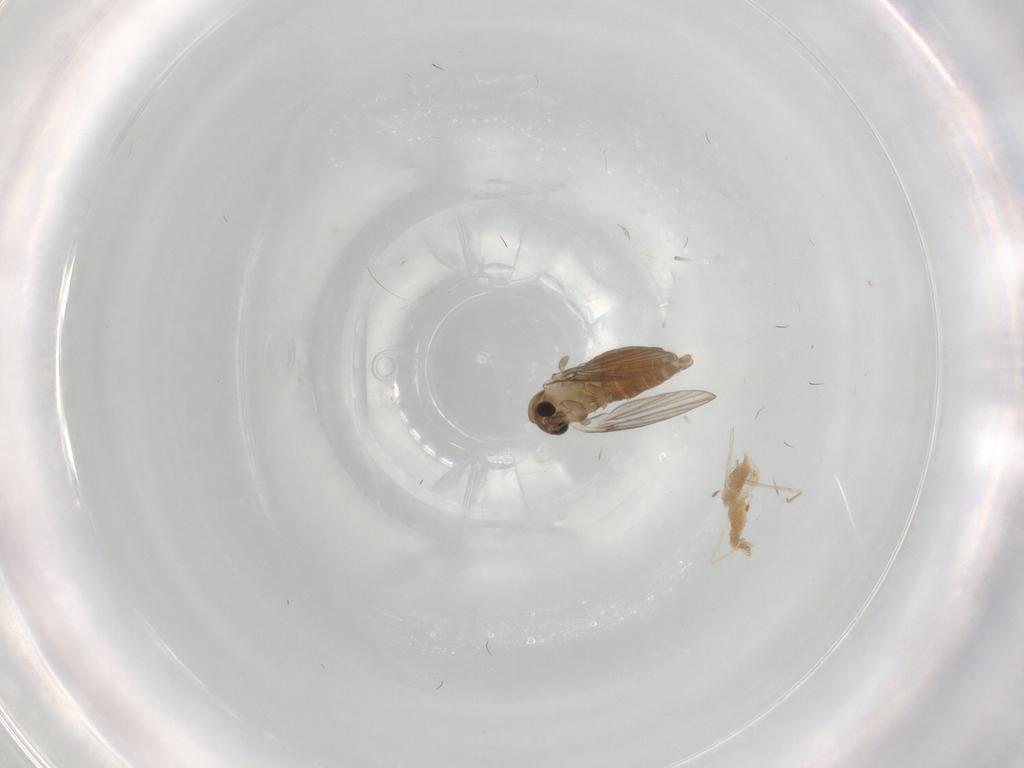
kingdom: Animalia
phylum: Arthropoda
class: Insecta
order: Diptera
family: Psychodidae
